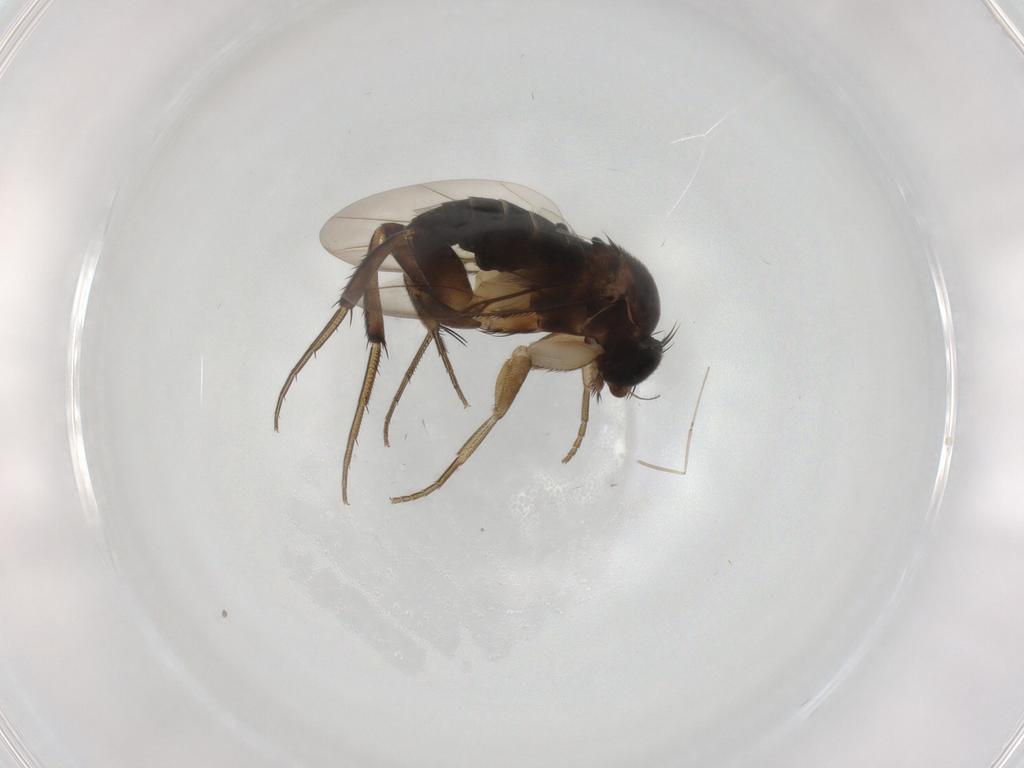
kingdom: Animalia
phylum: Arthropoda
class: Insecta
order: Diptera
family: Phoridae
